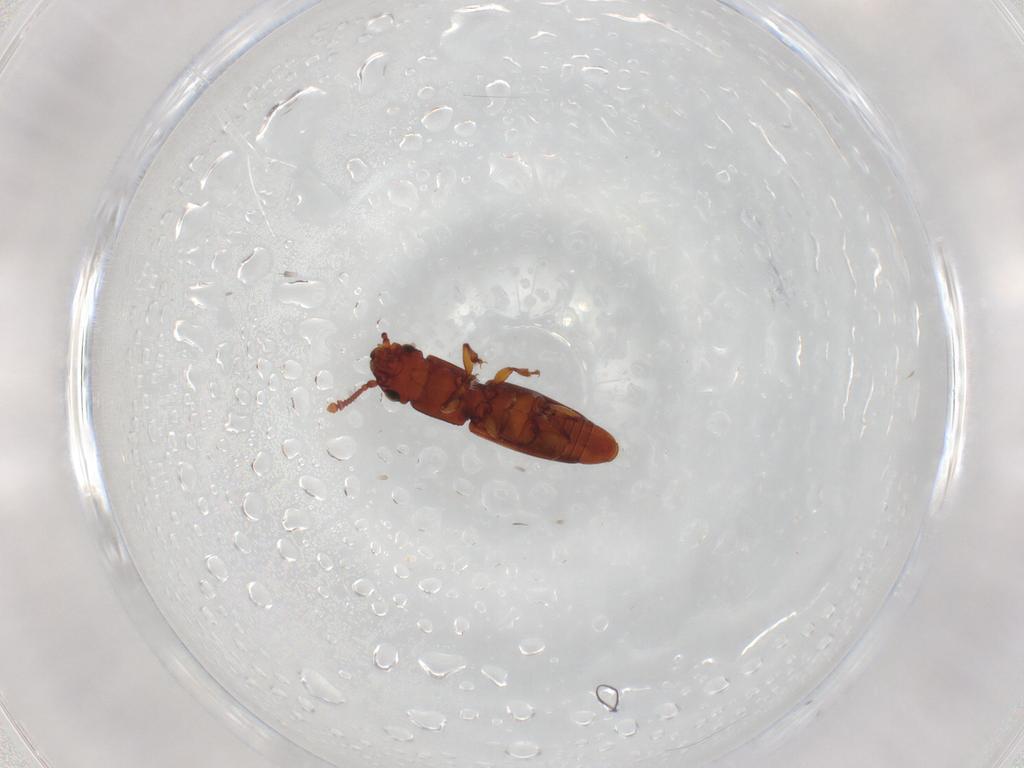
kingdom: Animalia
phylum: Arthropoda
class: Insecta
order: Coleoptera
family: Monotomidae
